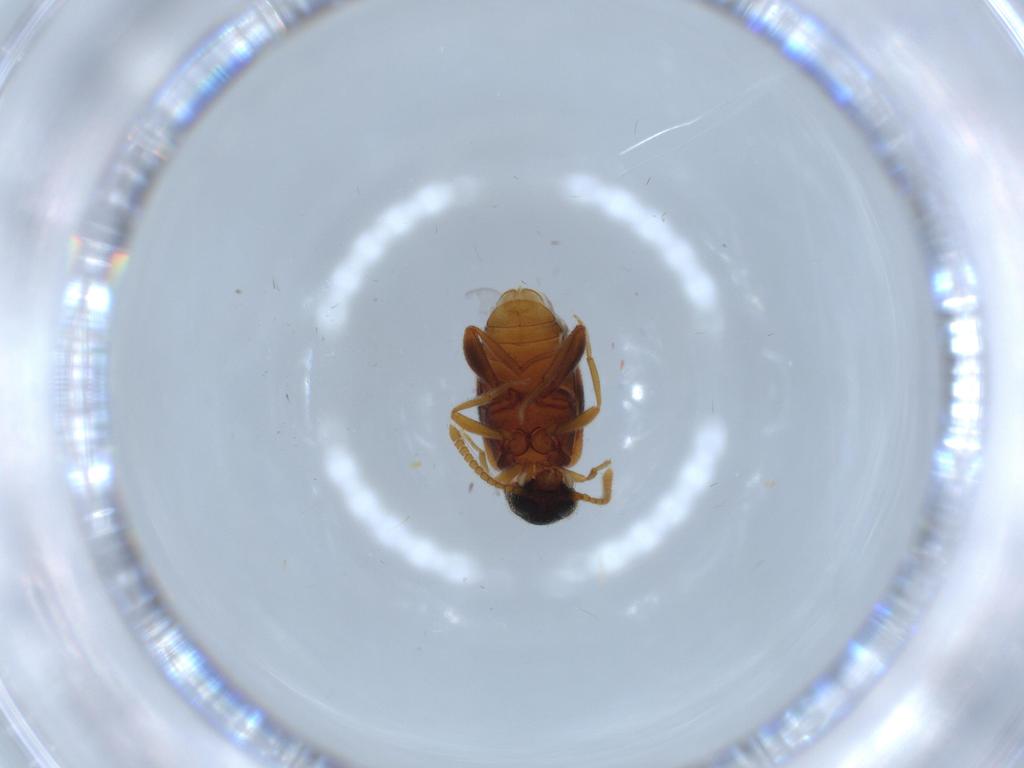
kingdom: Animalia
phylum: Arthropoda
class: Insecta
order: Coleoptera
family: Aderidae
